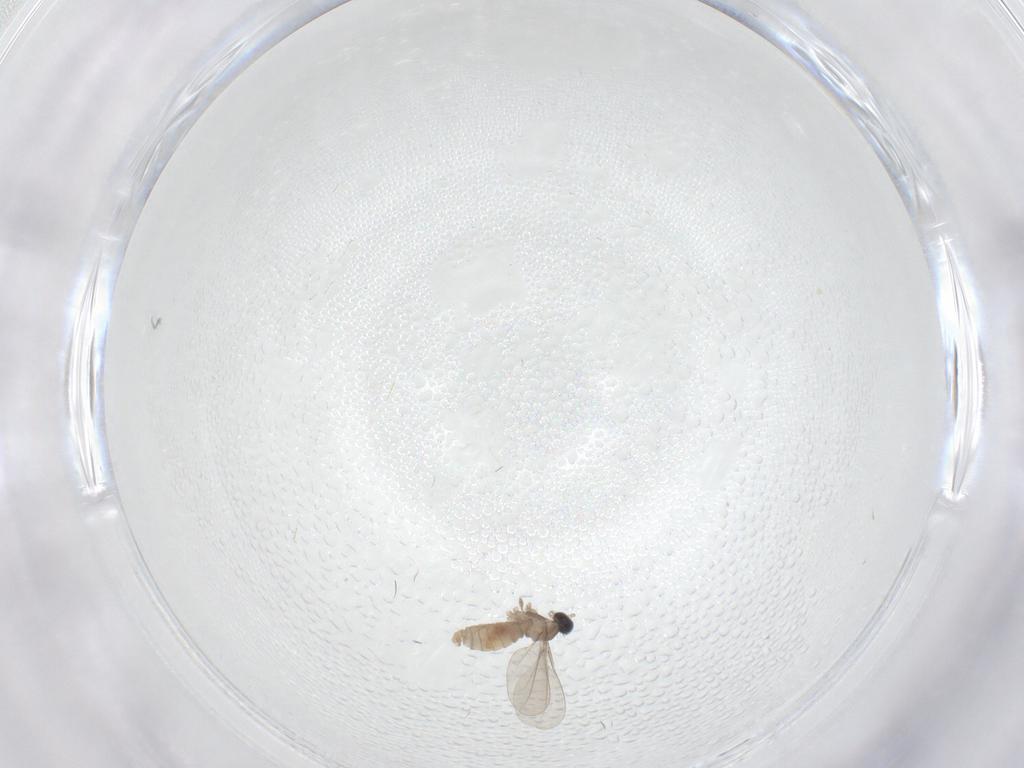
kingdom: Animalia
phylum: Arthropoda
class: Insecta
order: Diptera
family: Cecidomyiidae
